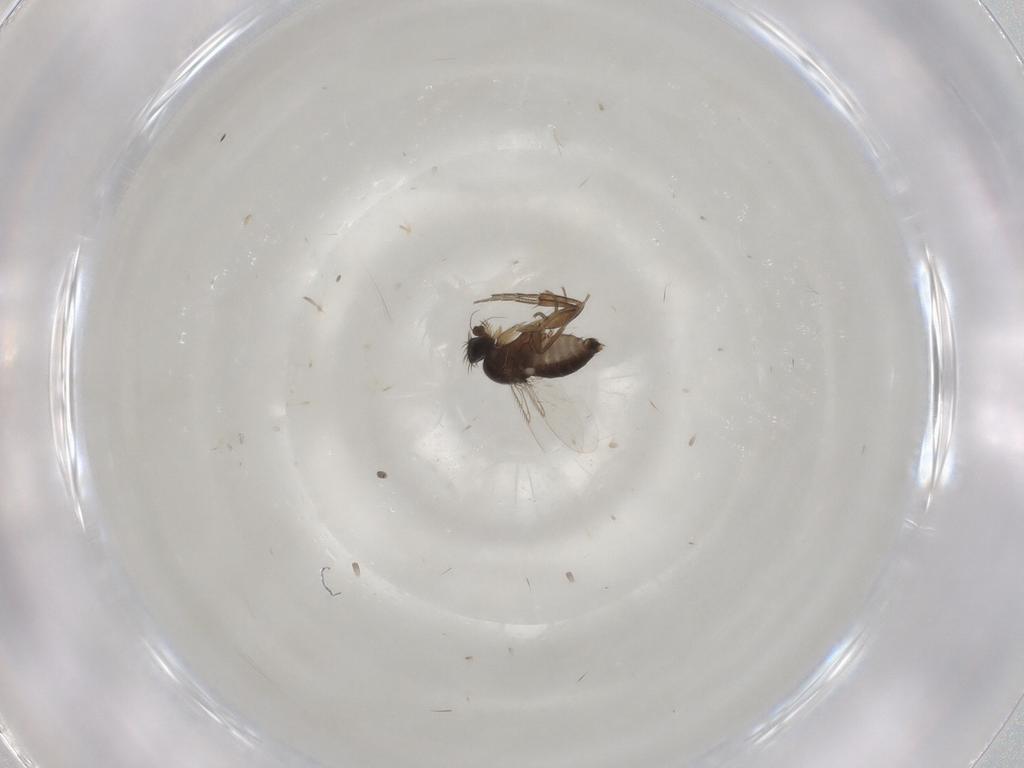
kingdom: Animalia
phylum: Arthropoda
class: Insecta
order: Diptera
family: Phoridae
